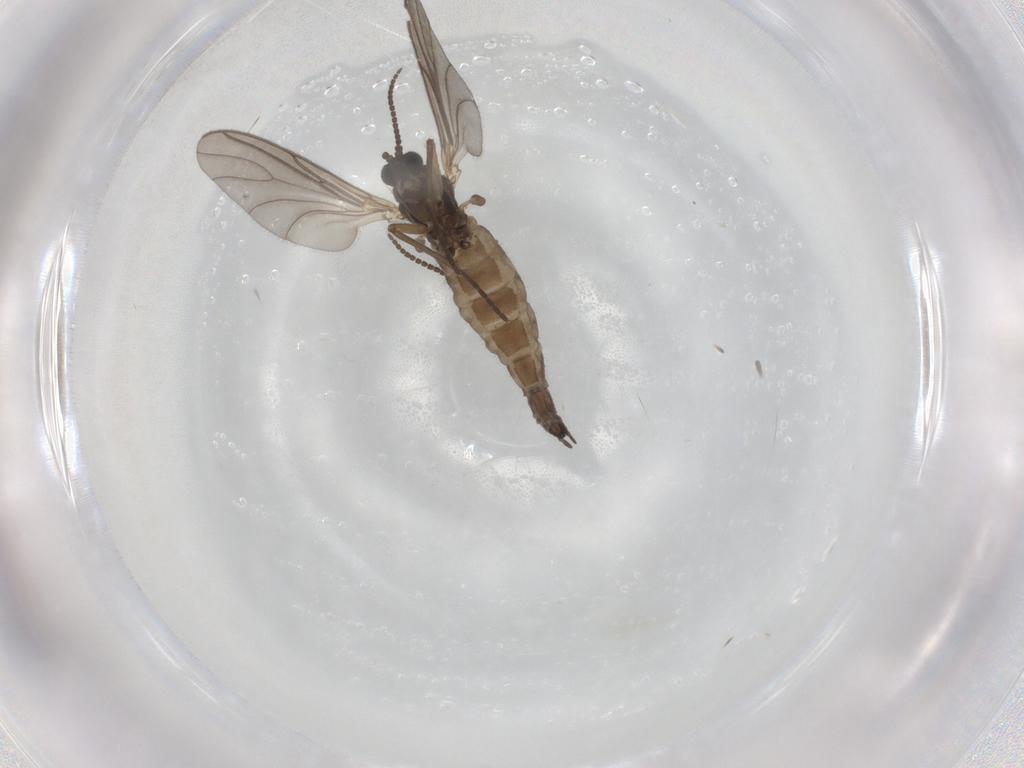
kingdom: Animalia
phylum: Arthropoda
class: Insecta
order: Diptera
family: Sciaridae
